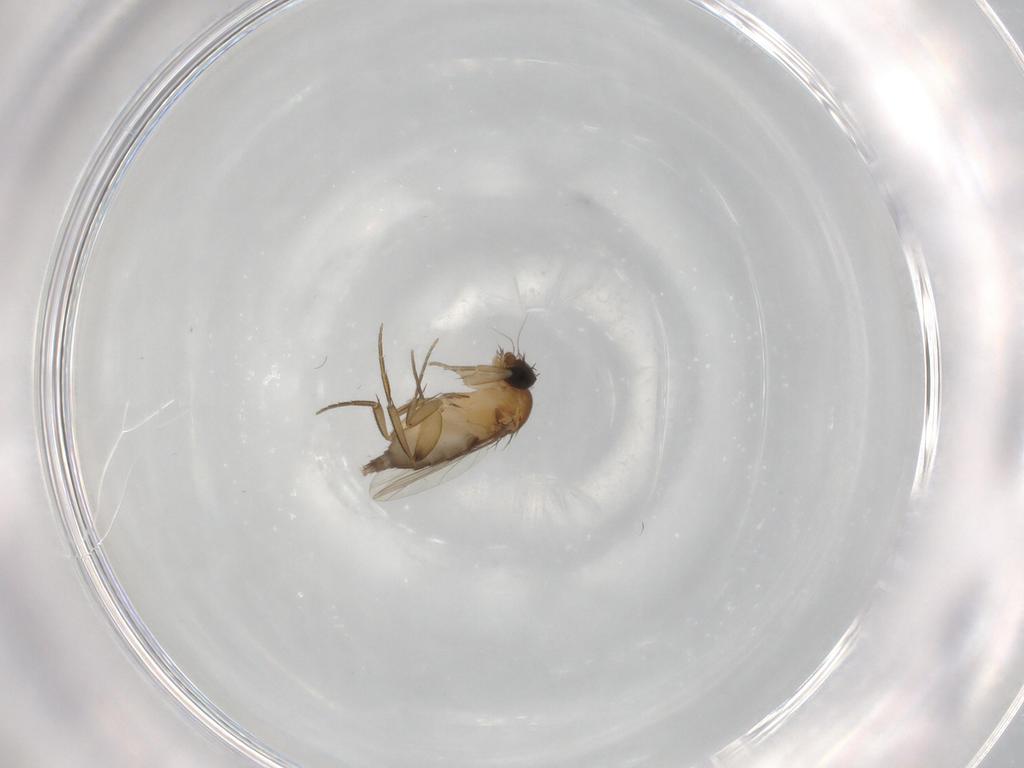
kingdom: Animalia
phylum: Arthropoda
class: Insecta
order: Diptera
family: Phoridae
